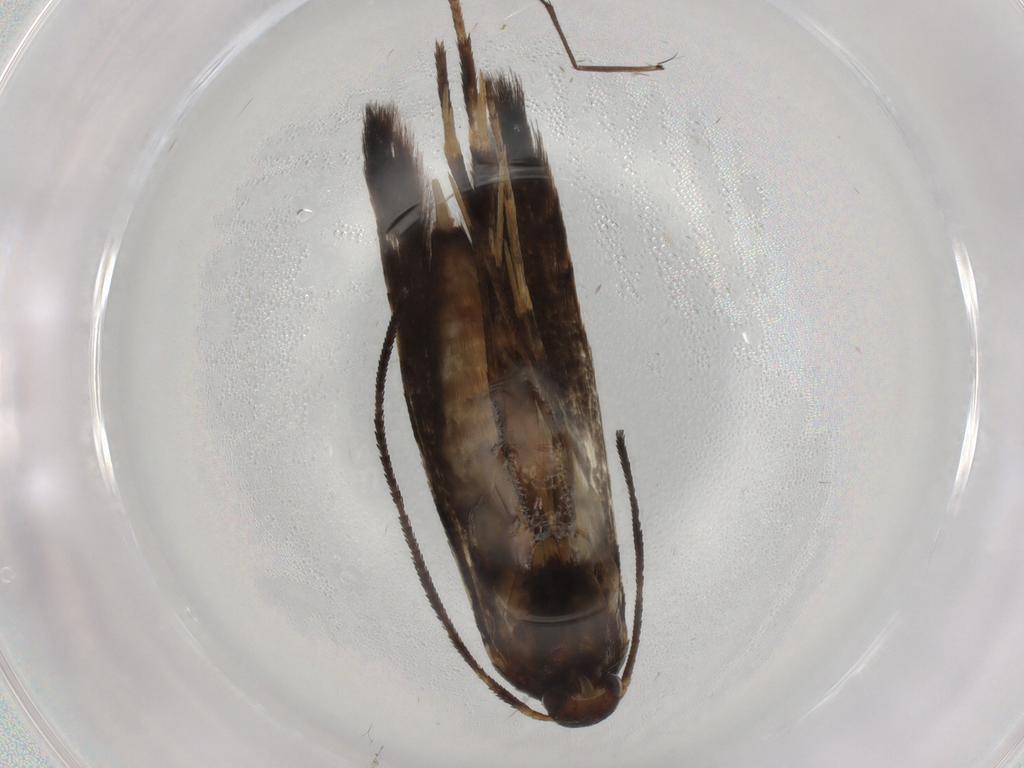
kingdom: Animalia
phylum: Arthropoda
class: Insecta
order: Lepidoptera
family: Heliodinidae
